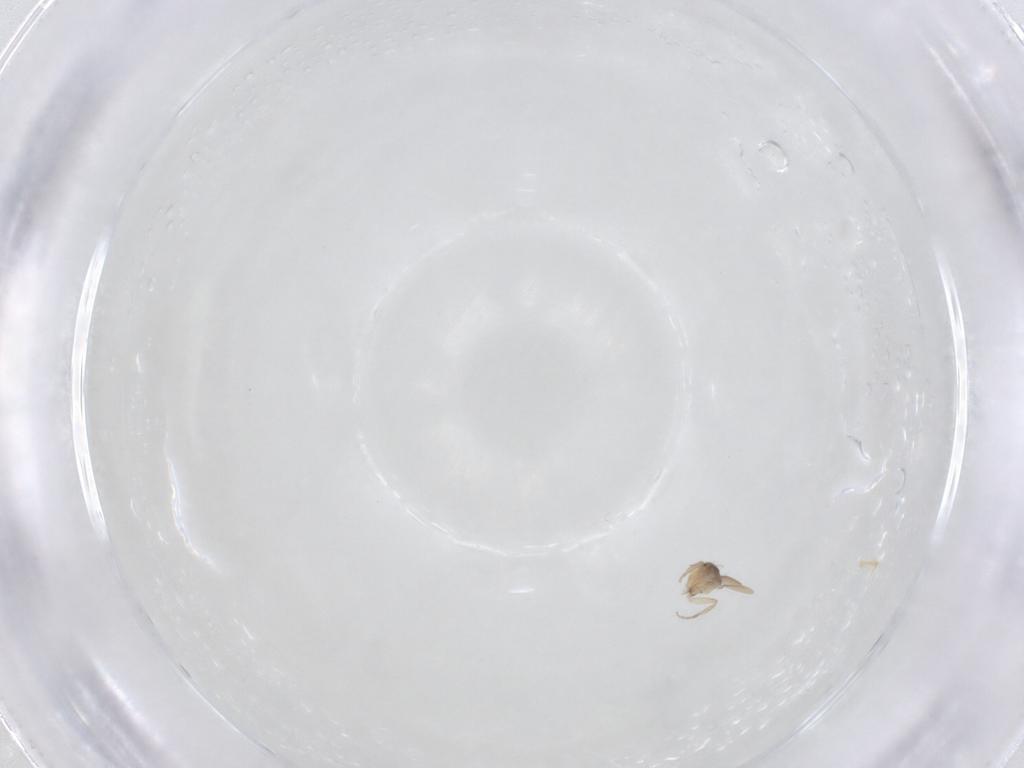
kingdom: Animalia
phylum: Arthropoda
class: Insecta
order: Diptera
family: Phoridae
